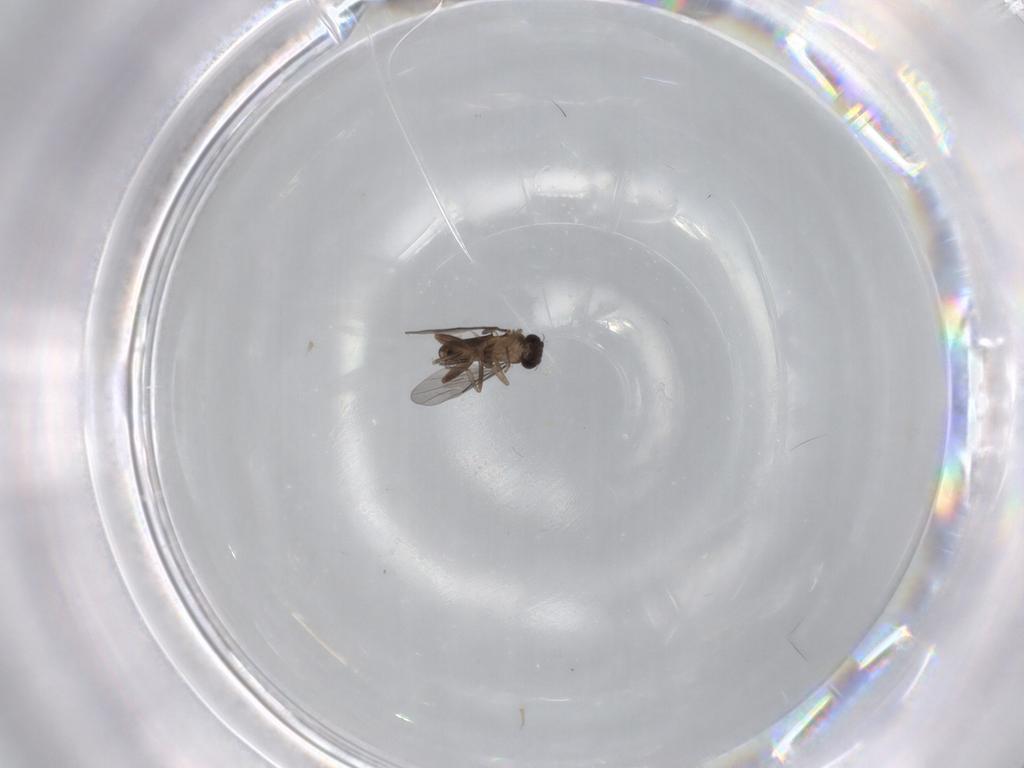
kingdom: Animalia
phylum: Arthropoda
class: Insecta
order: Diptera
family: Cecidomyiidae
